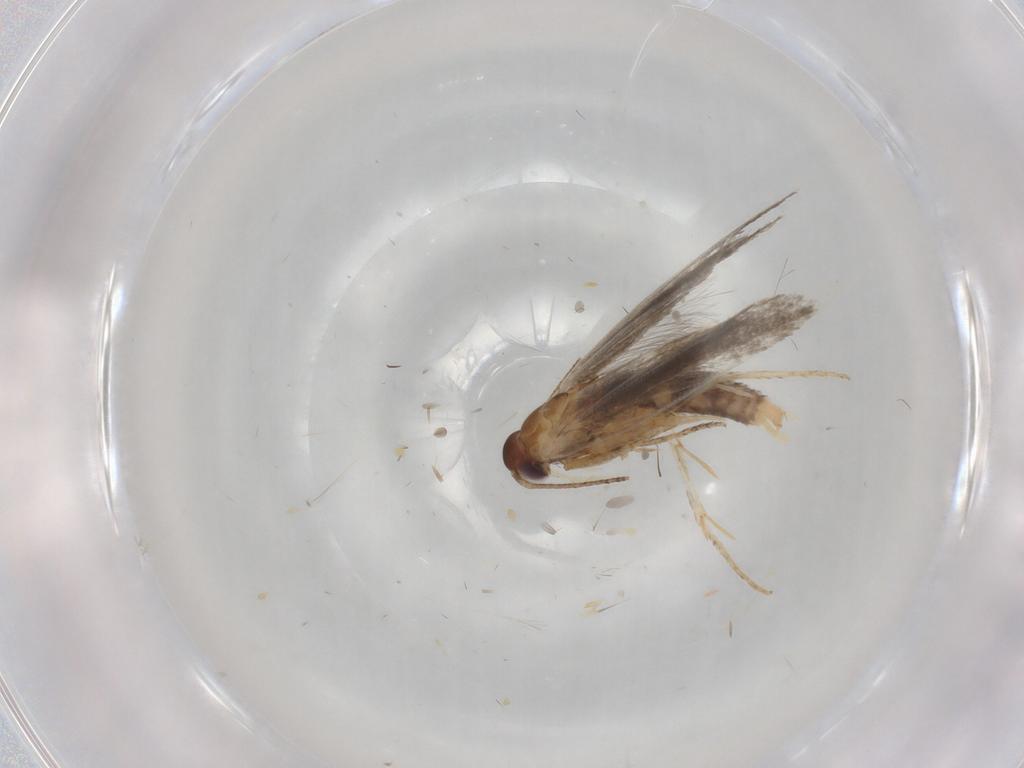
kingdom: Animalia
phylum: Arthropoda
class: Insecta
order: Lepidoptera
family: Gelechiidae
